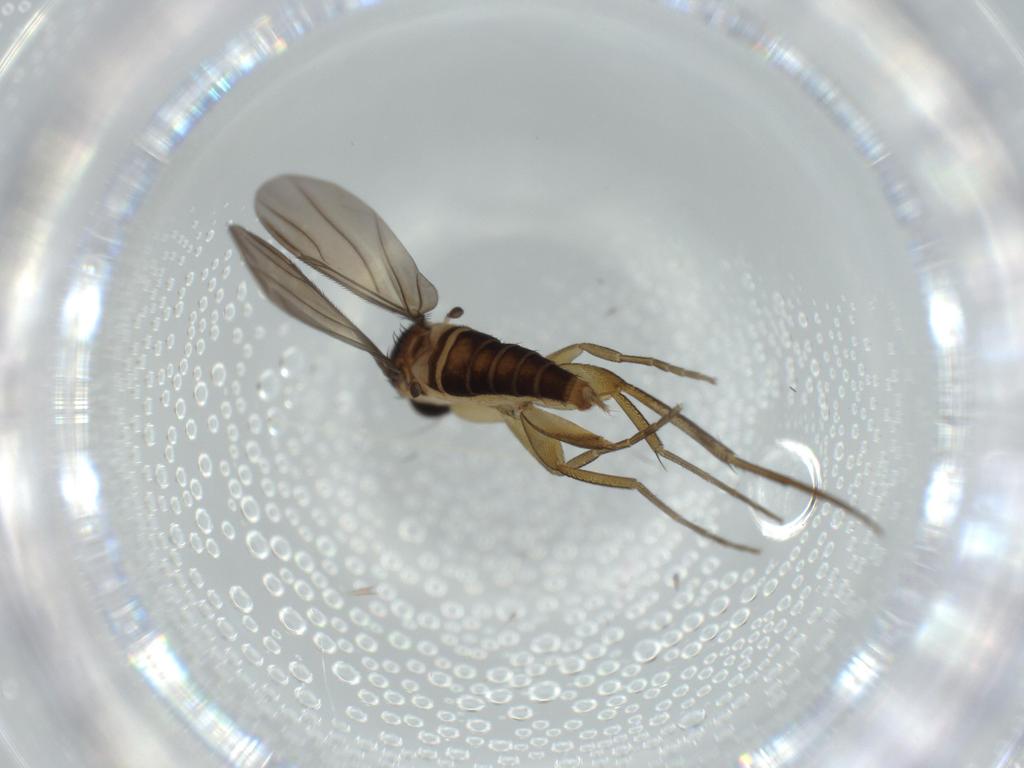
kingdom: Animalia
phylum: Arthropoda
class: Insecta
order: Diptera
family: Phoridae
